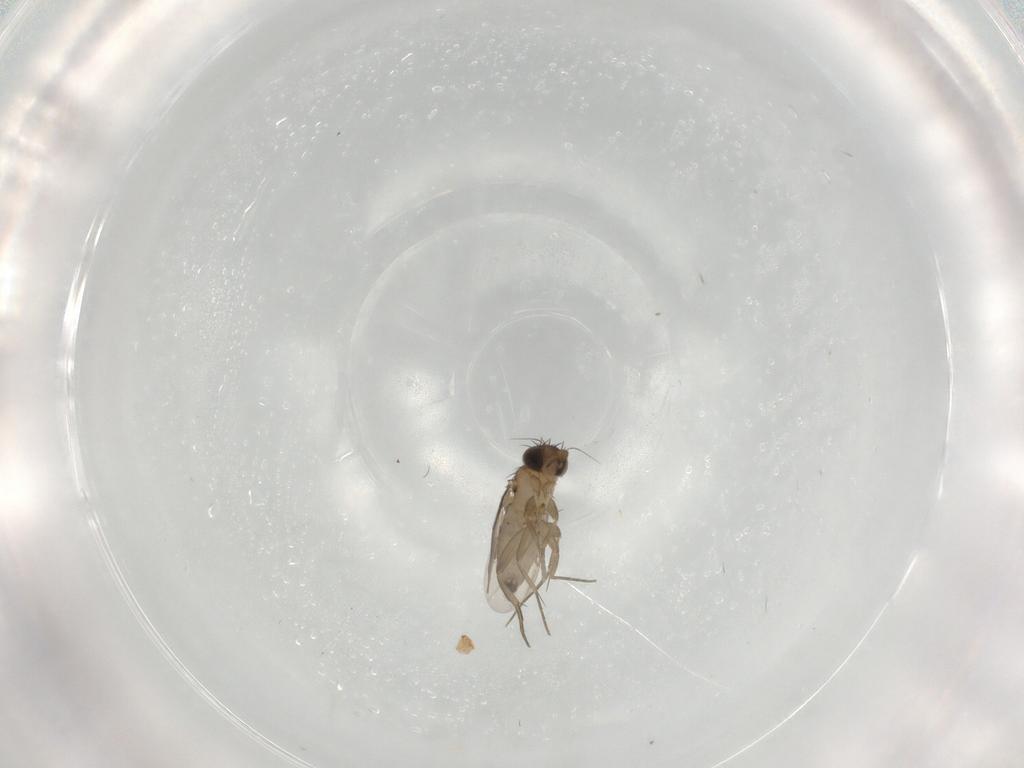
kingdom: Animalia
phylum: Arthropoda
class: Insecta
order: Diptera
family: Phoridae
